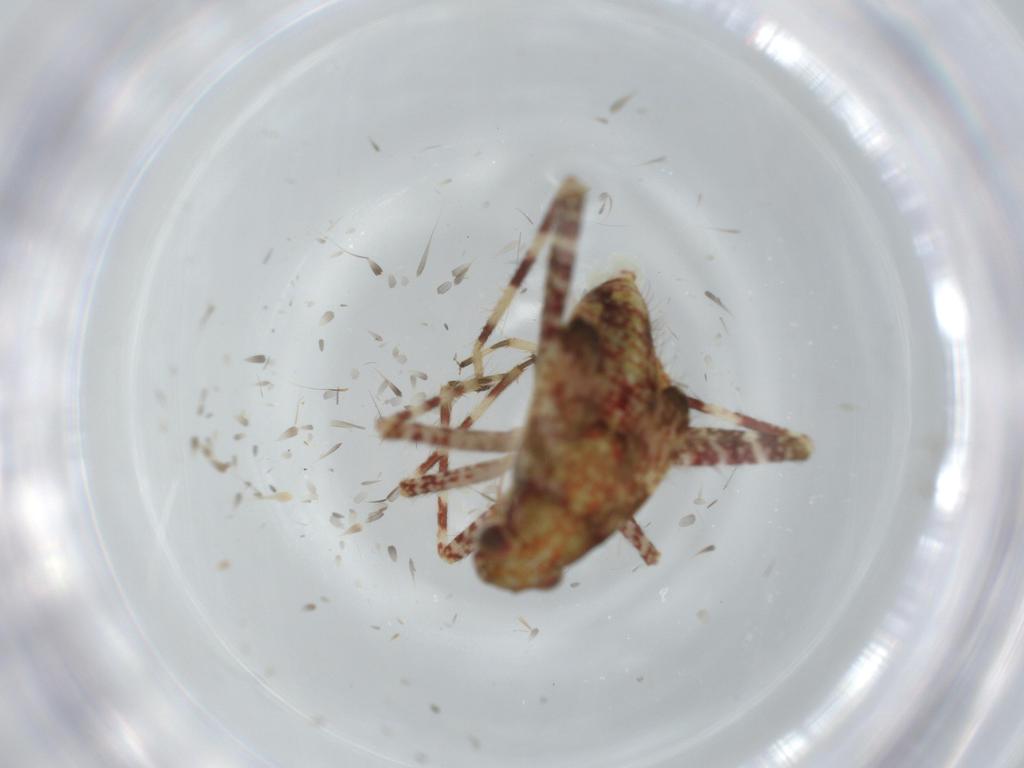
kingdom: Animalia
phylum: Arthropoda
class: Insecta
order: Hemiptera
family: Miridae
